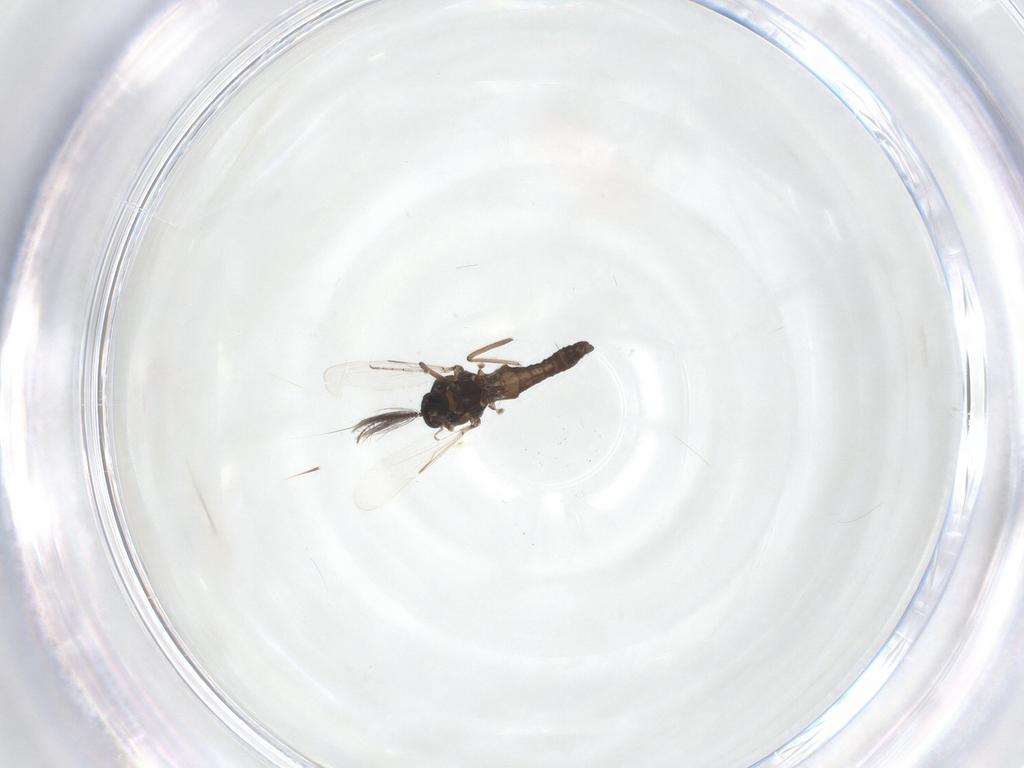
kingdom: Animalia
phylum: Arthropoda
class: Insecta
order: Diptera
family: Ceratopogonidae
